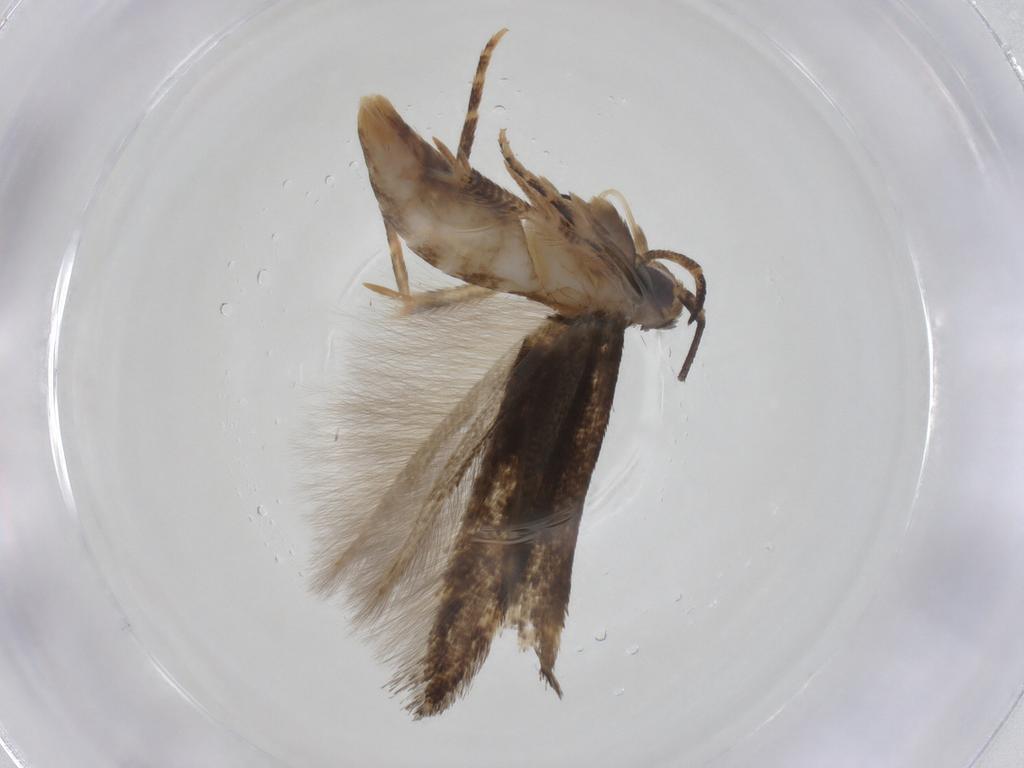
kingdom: Animalia
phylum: Arthropoda
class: Insecta
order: Lepidoptera
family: Cosmopterigidae
